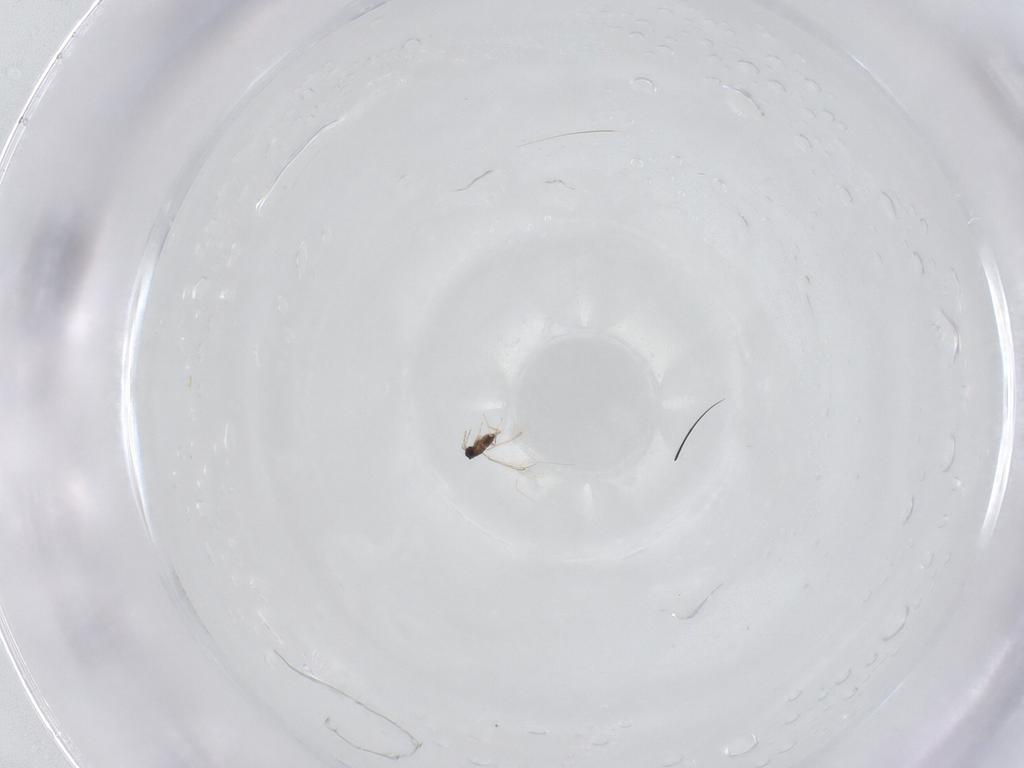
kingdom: Animalia
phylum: Arthropoda
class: Insecta
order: Hymenoptera
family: Mymaridae
